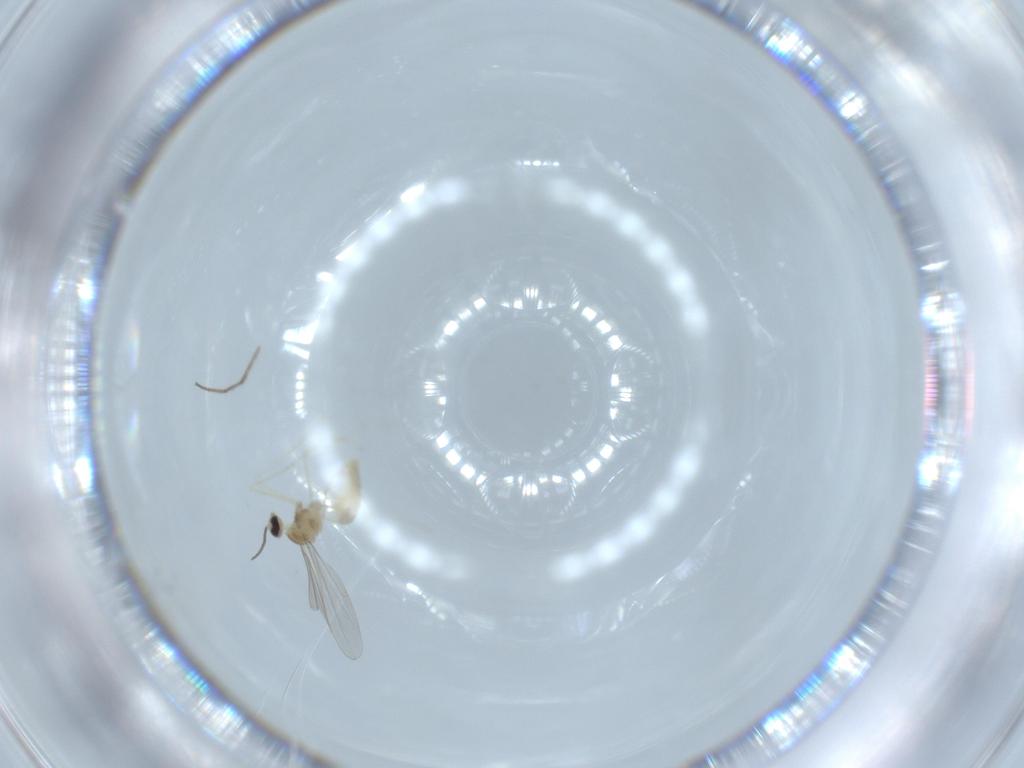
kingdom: Animalia
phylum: Arthropoda
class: Insecta
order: Diptera
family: Chironomidae
